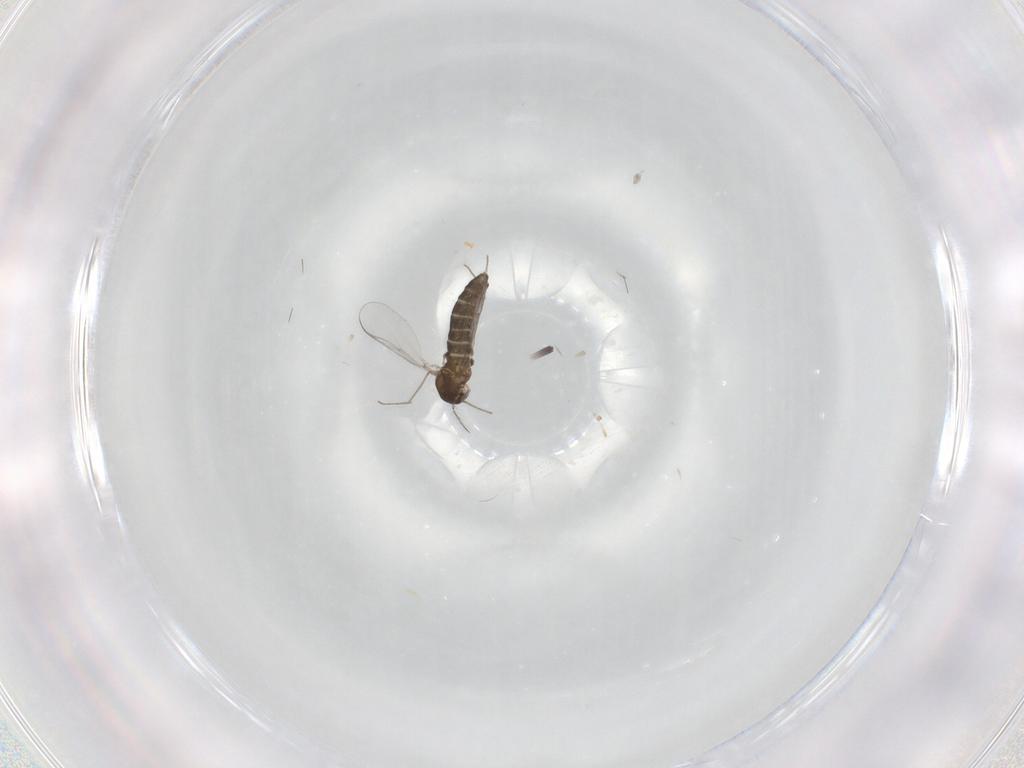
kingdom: Animalia
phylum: Arthropoda
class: Insecta
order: Diptera
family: Chironomidae
